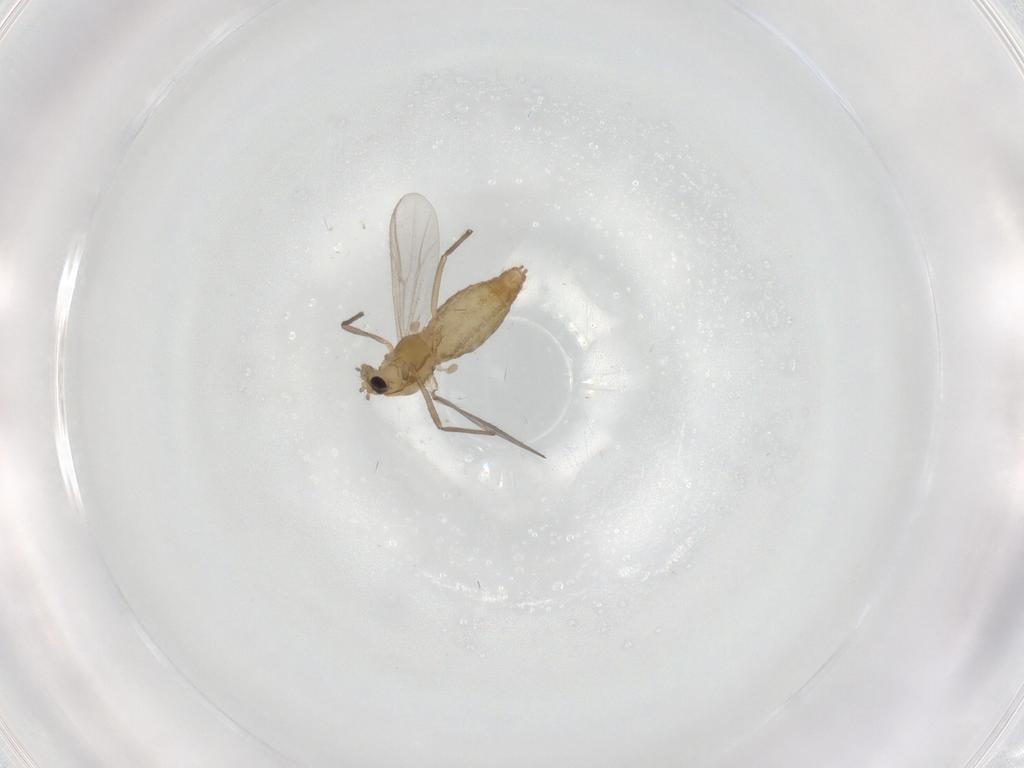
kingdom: Animalia
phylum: Arthropoda
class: Insecta
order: Diptera
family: Chironomidae
